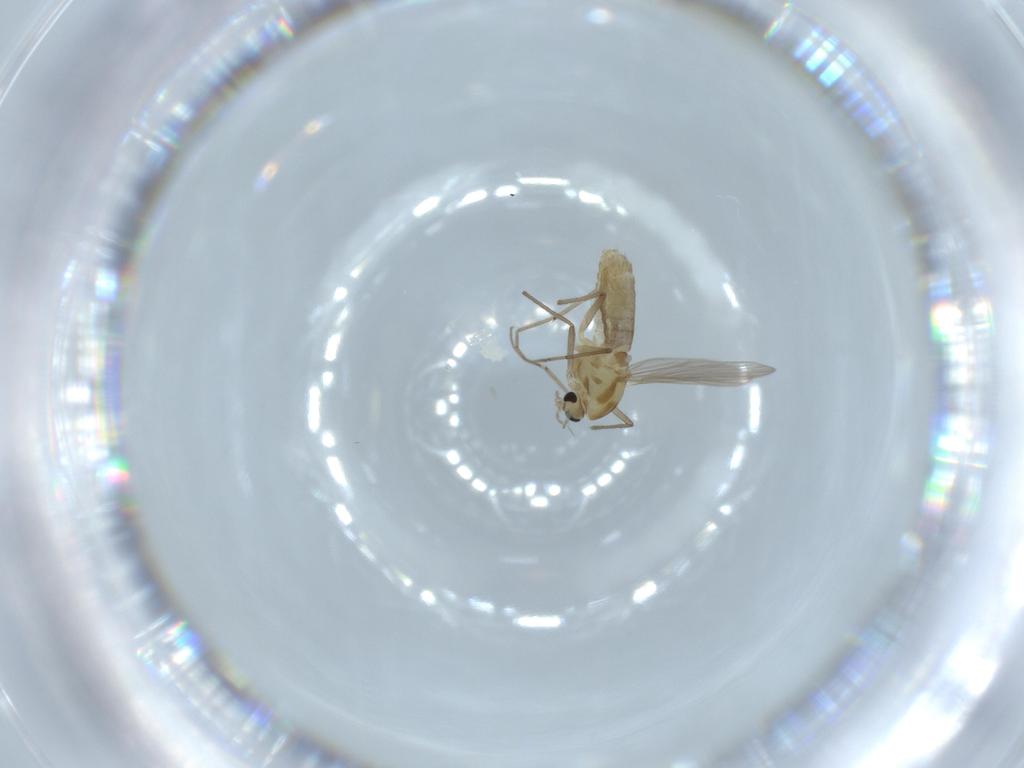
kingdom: Animalia
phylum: Arthropoda
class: Insecta
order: Diptera
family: Chironomidae
